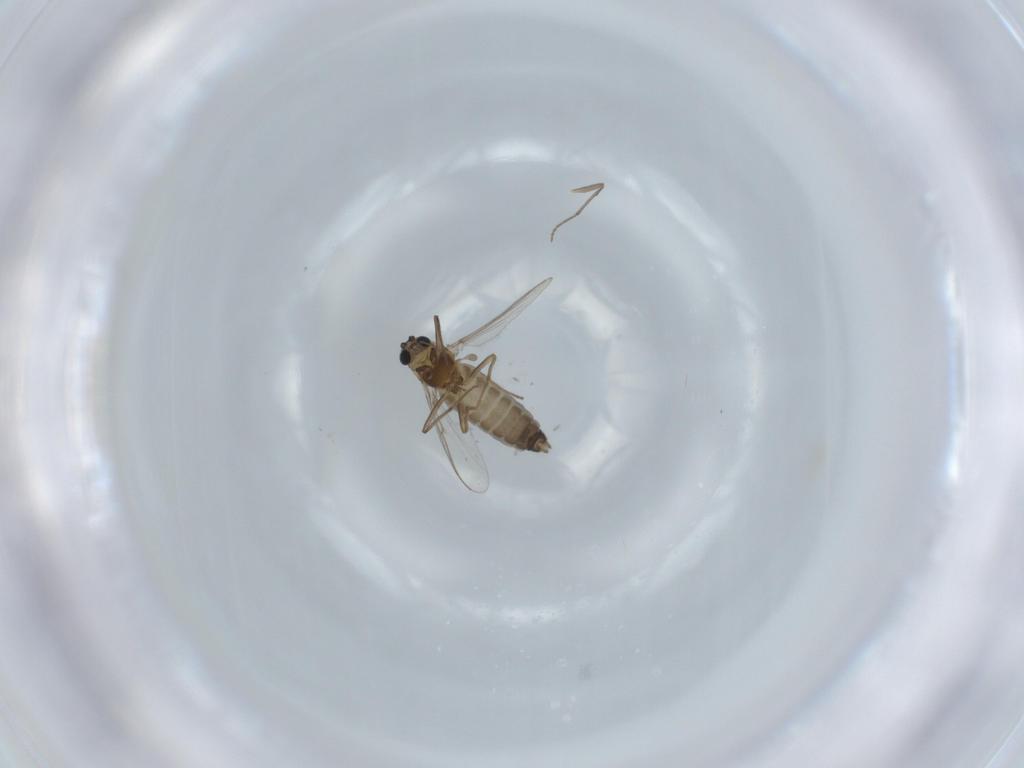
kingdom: Animalia
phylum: Arthropoda
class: Insecta
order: Diptera
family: Chironomidae
